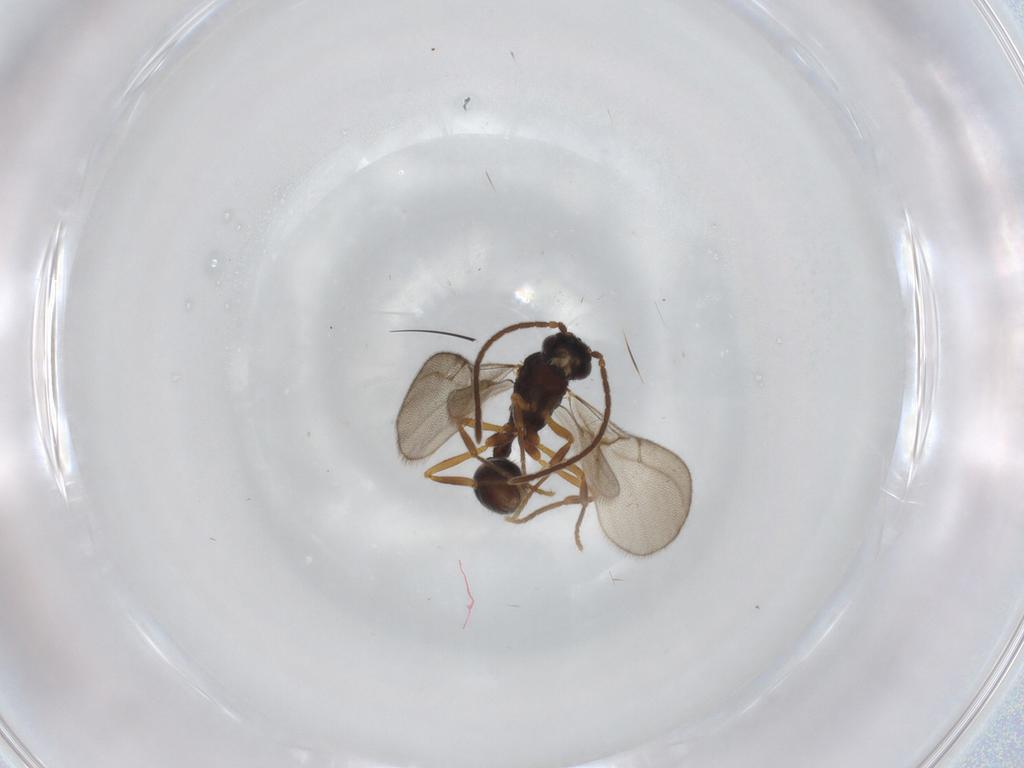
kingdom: Animalia
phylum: Arthropoda
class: Insecta
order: Hymenoptera
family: Formicidae
